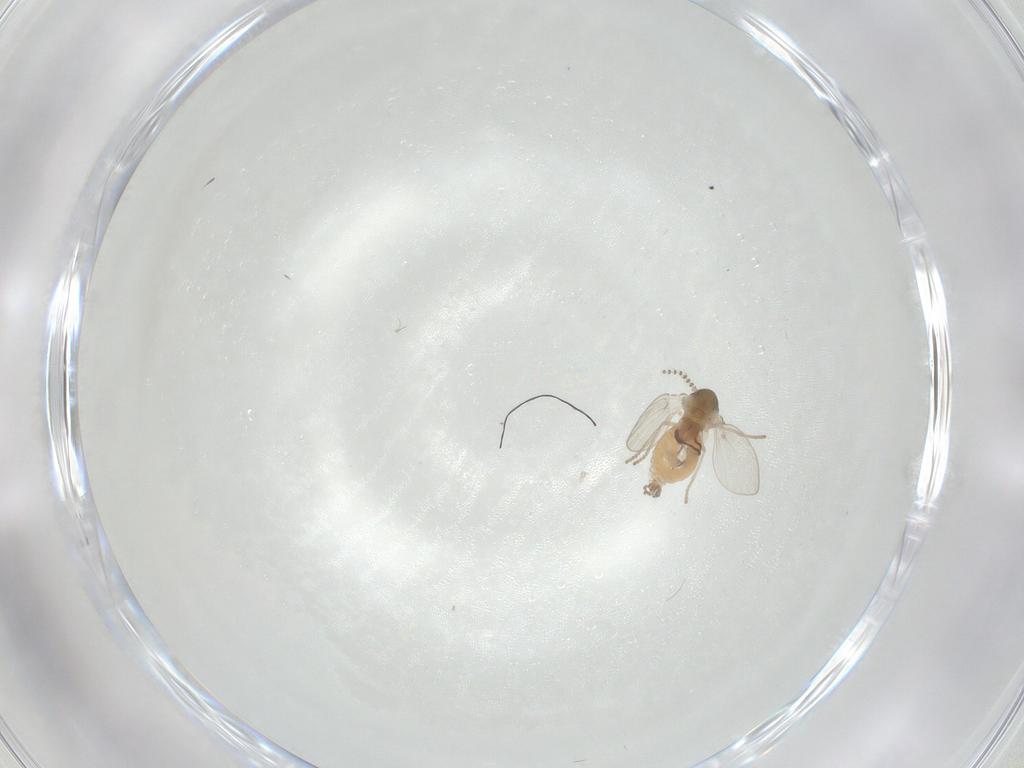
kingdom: Animalia
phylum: Arthropoda
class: Insecta
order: Diptera
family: Psychodidae
